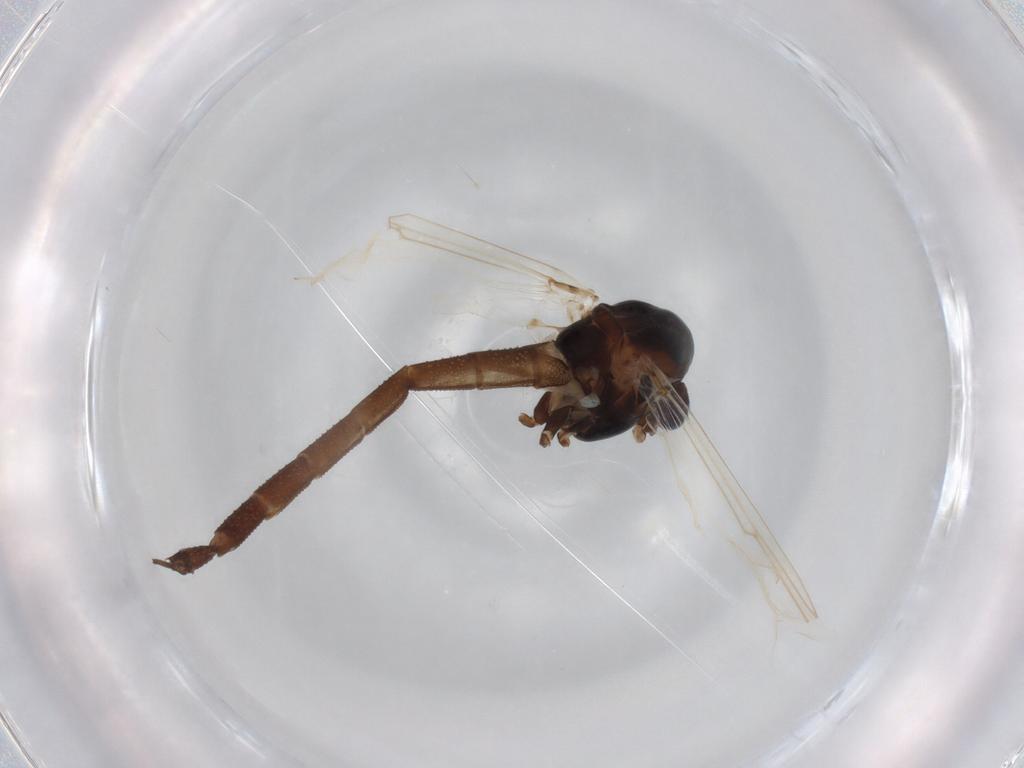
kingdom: Animalia
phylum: Arthropoda
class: Insecta
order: Diptera
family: Chironomidae
